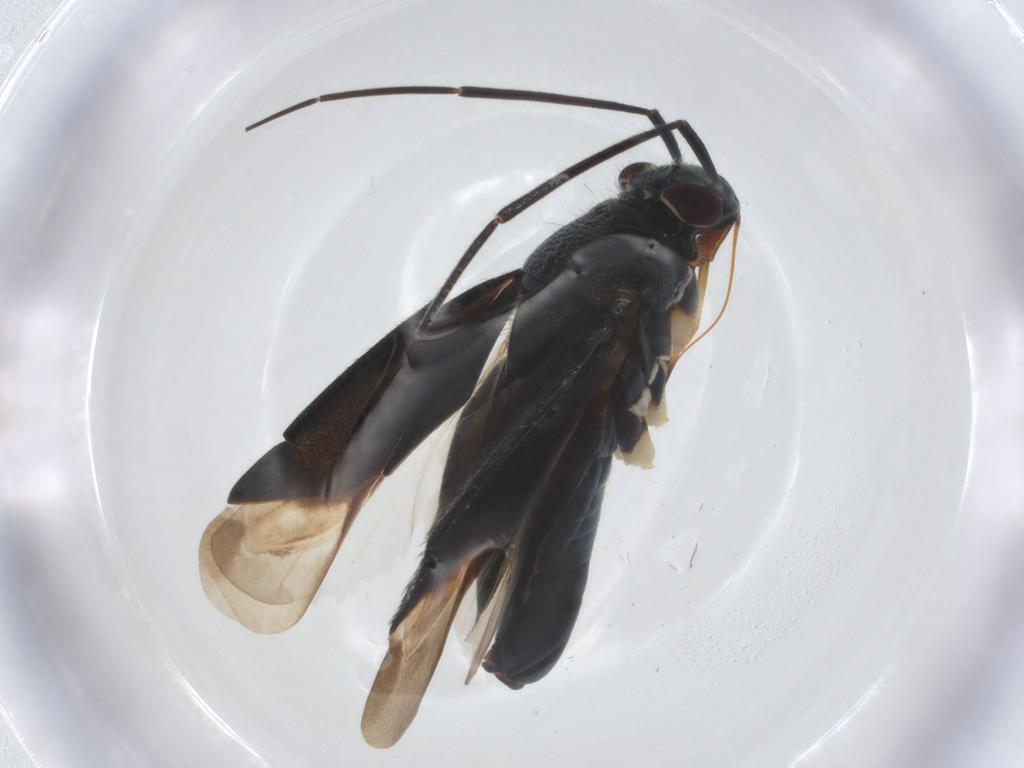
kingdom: Animalia
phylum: Arthropoda
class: Insecta
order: Hemiptera
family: Miridae
